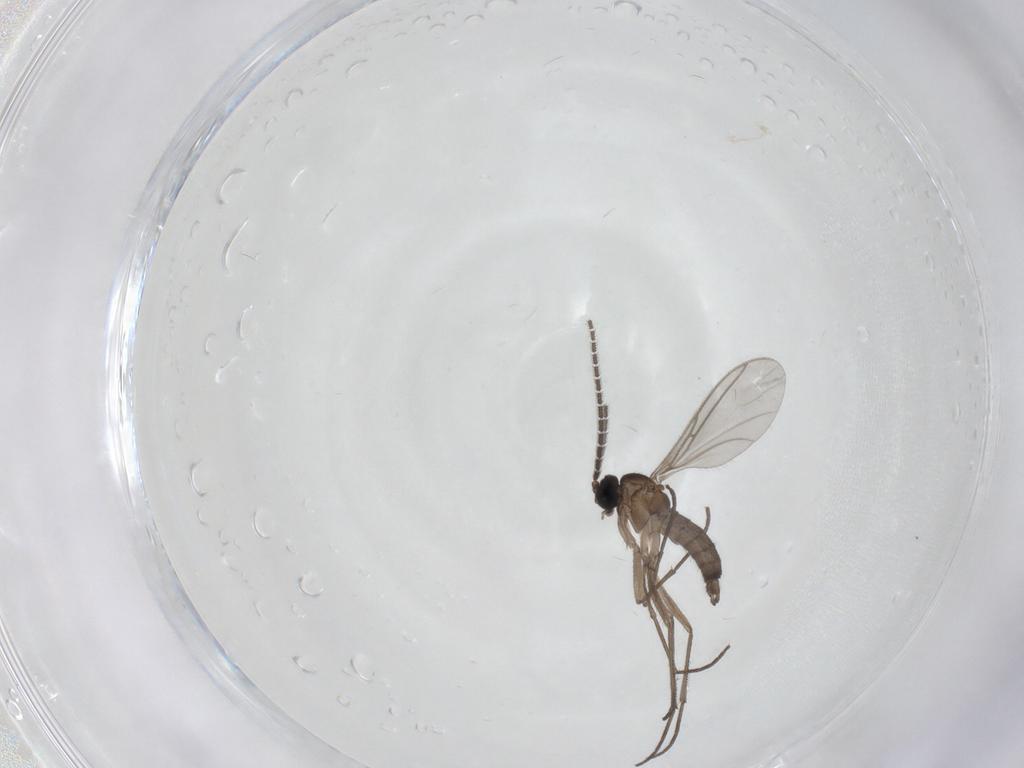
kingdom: Animalia
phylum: Arthropoda
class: Insecta
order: Diptera
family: Sciaridae
